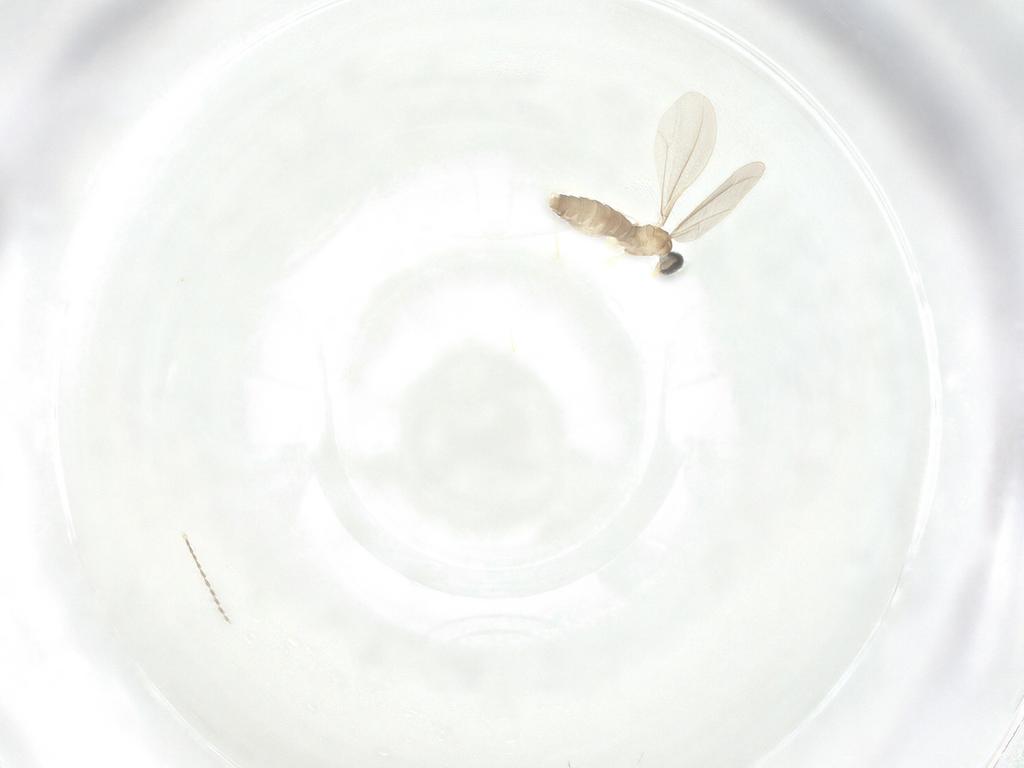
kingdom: Animalia
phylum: Arthropoda
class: Insecta
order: Diptera
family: Cecidomyiidae
